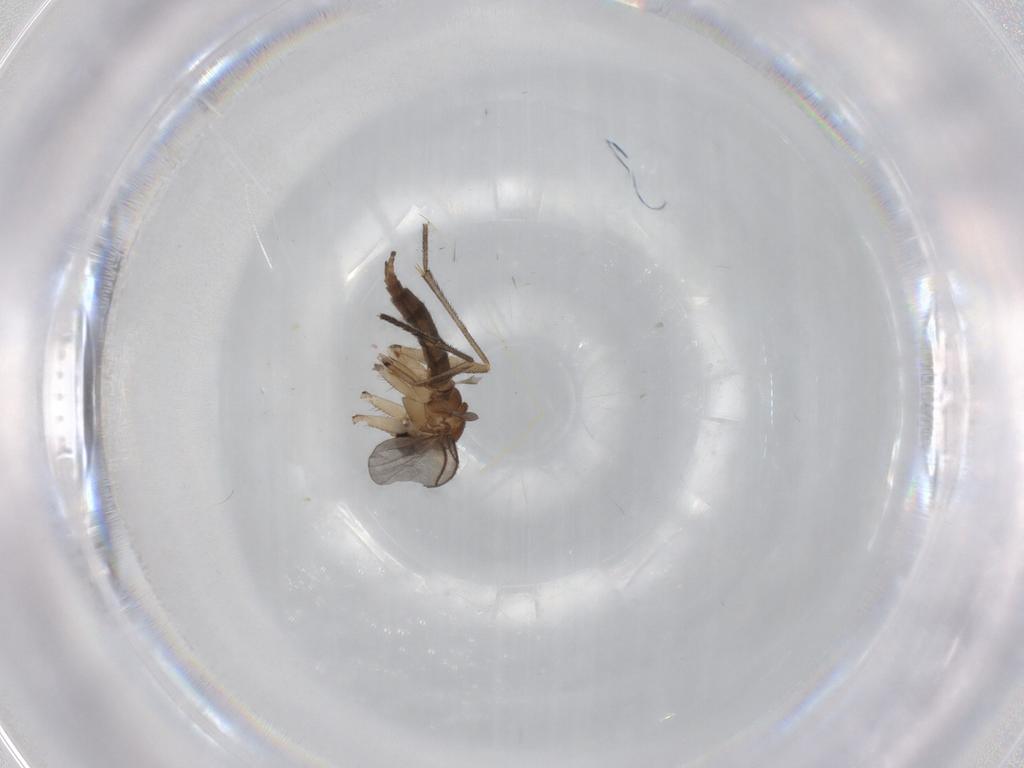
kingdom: Animalia
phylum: Arthropoda
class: Insecta
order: Diptera
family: Sciaridae
